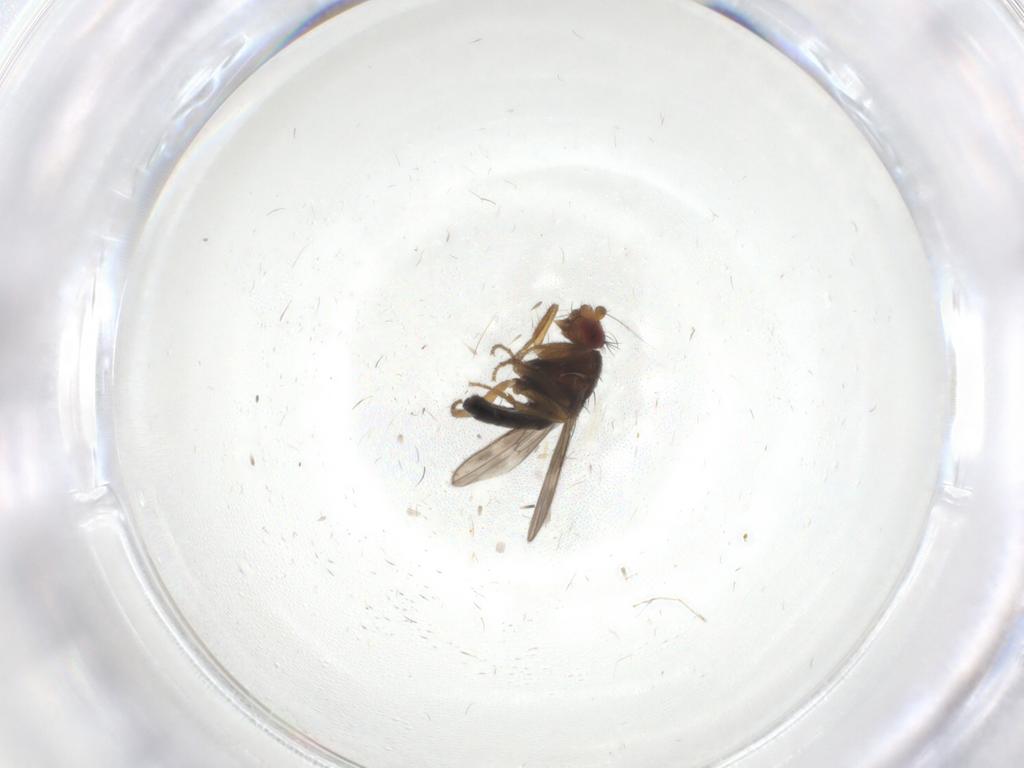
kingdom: Animalia
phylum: Arthropoda
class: Insecta
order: Diptera
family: Sphaeroceridae
